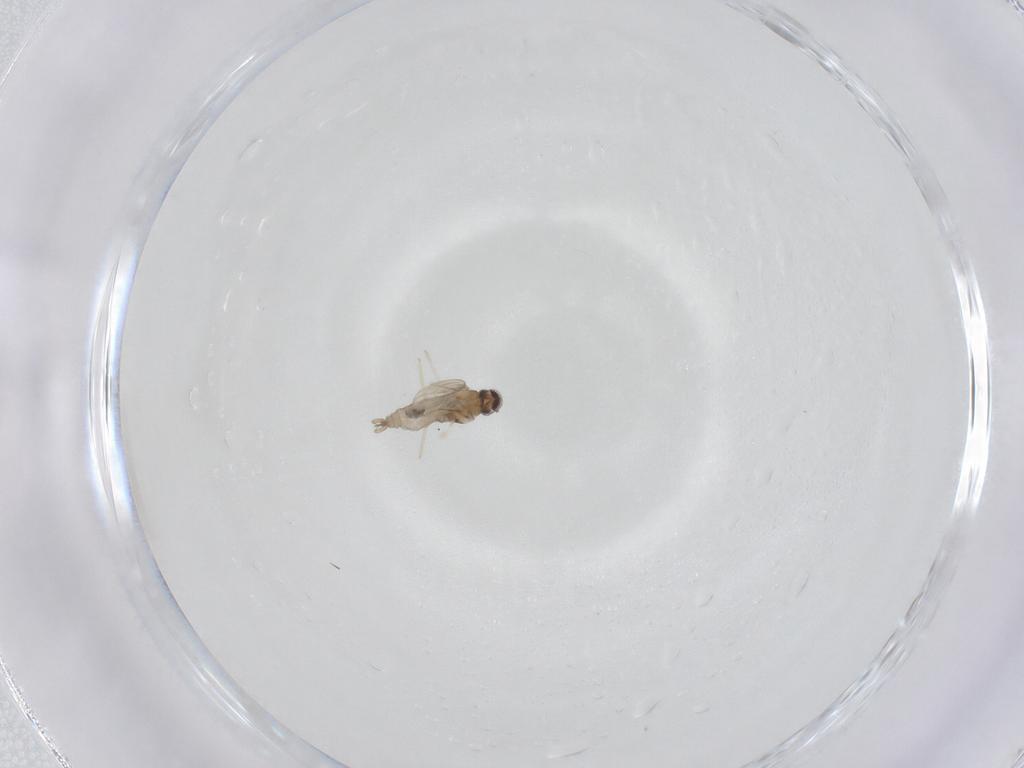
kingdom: Animalia
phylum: Arthropoda
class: Insecta
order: Diptera
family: Cecidomyiidae
